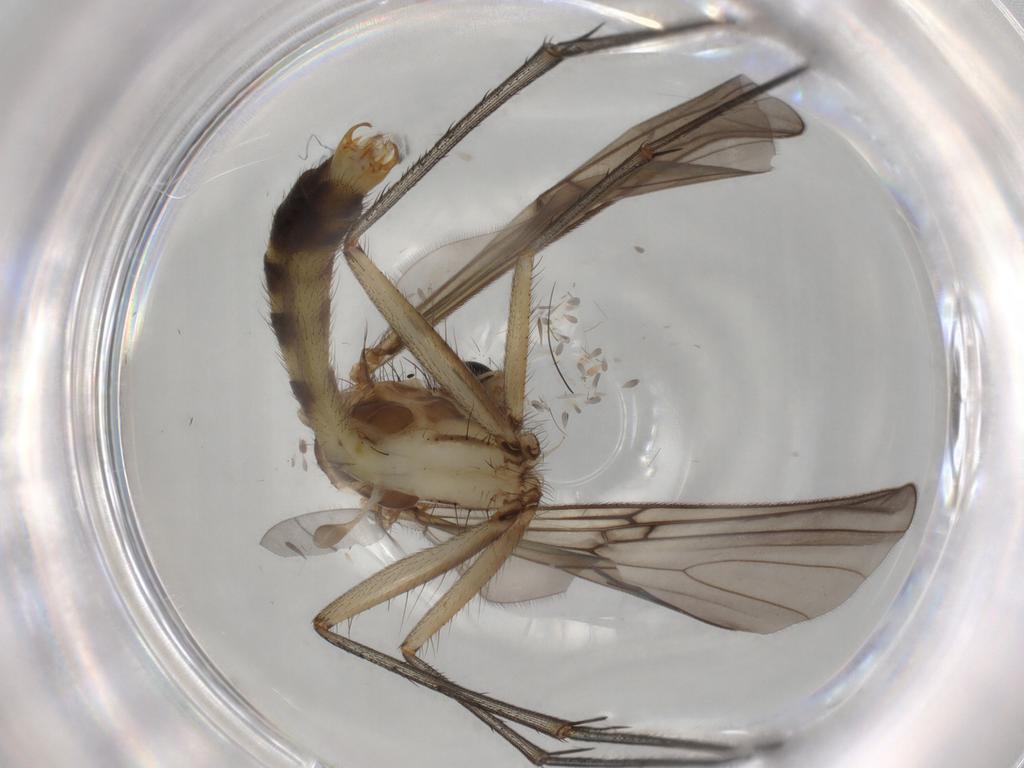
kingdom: Animalia
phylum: Arthropoda
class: Insecta
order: Diptera
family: Mycetophilidae
